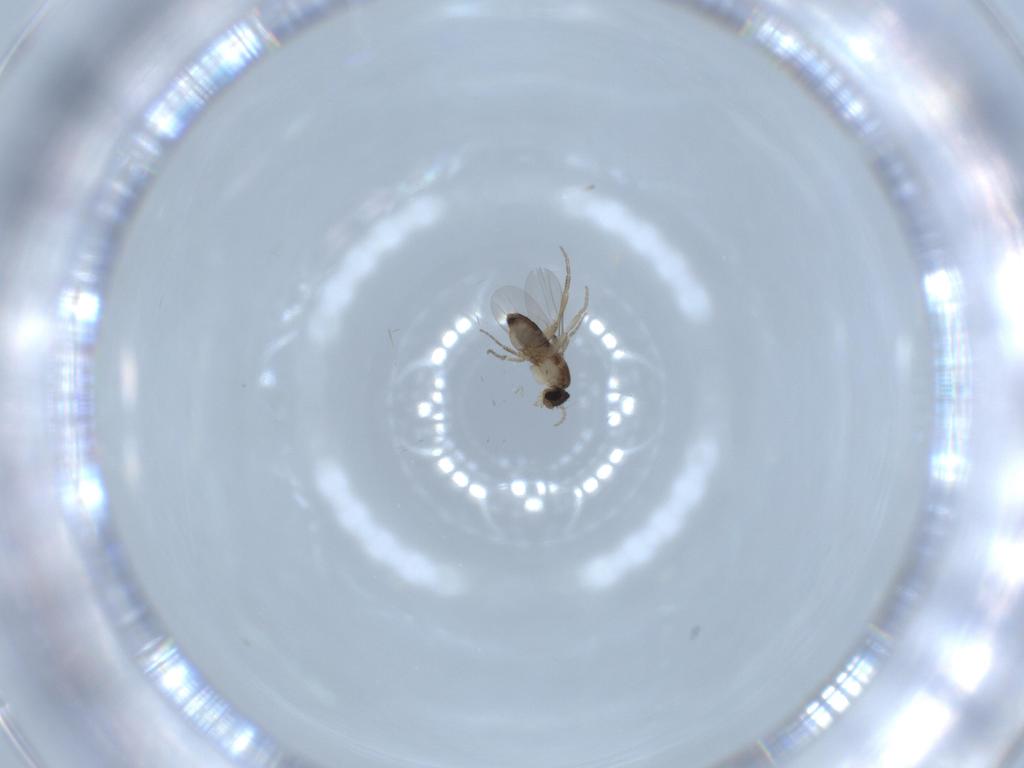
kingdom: Animalia
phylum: Arthropoda
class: Insecta
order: Diptera
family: Phoridae
